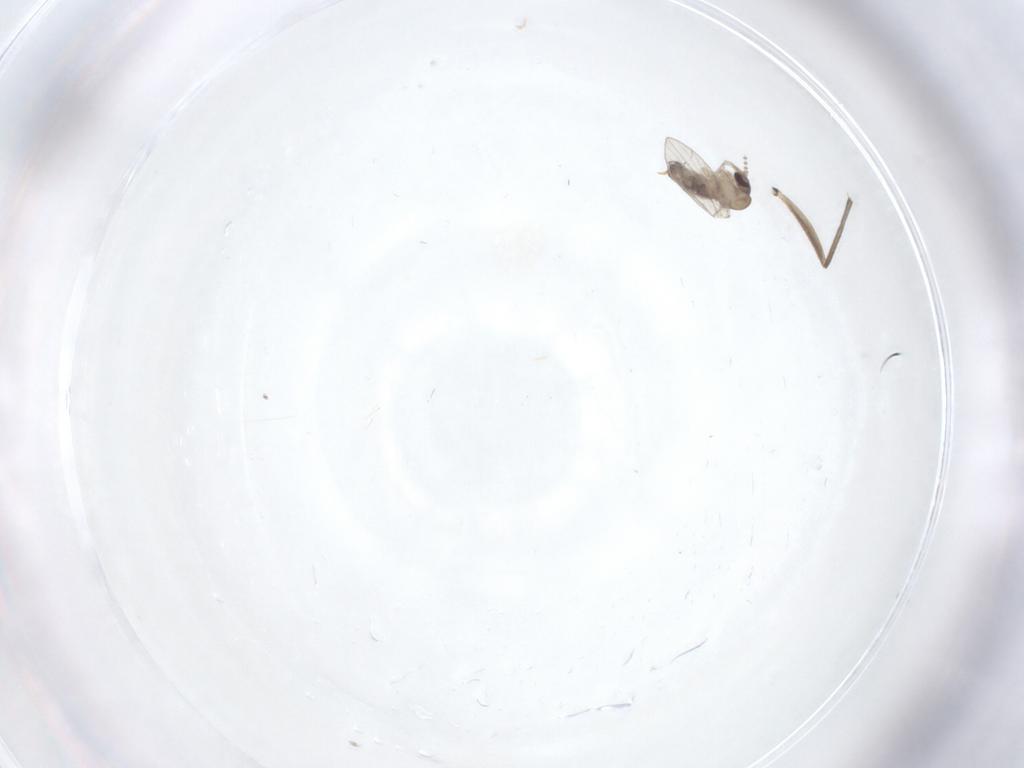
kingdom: Animalia
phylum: Arthropoda
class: Insecta
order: Diptera
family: Psychodidae
